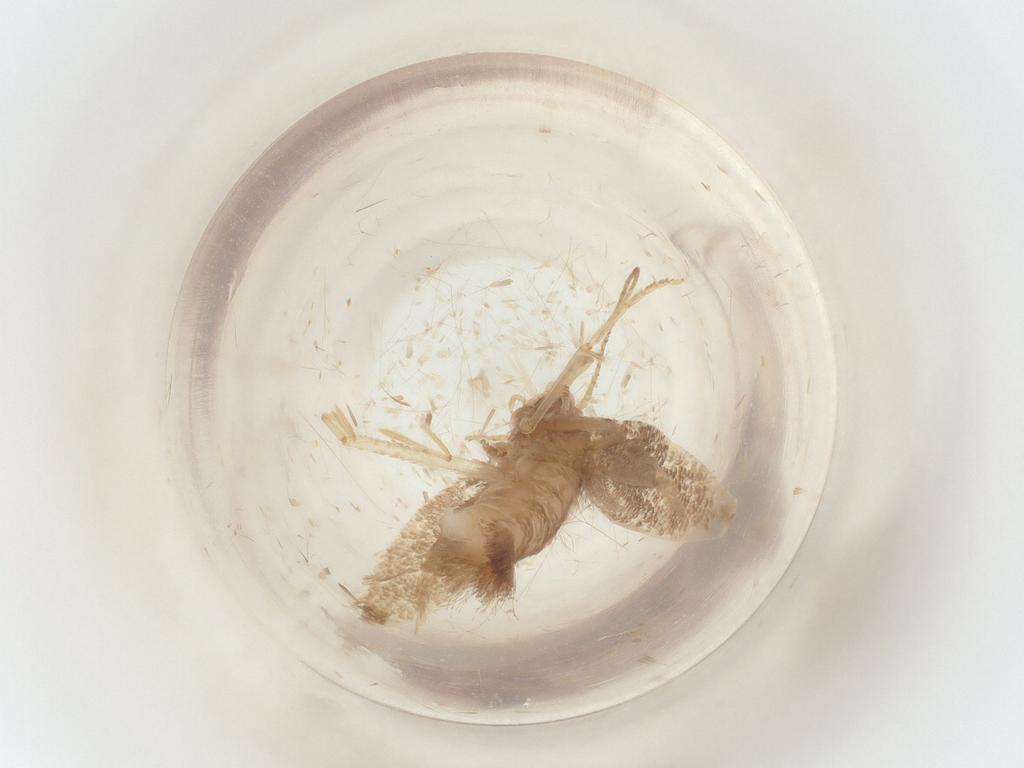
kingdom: Animalia
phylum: Arthropoda
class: Insecta
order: Lepidoptera
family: Elachistidae
